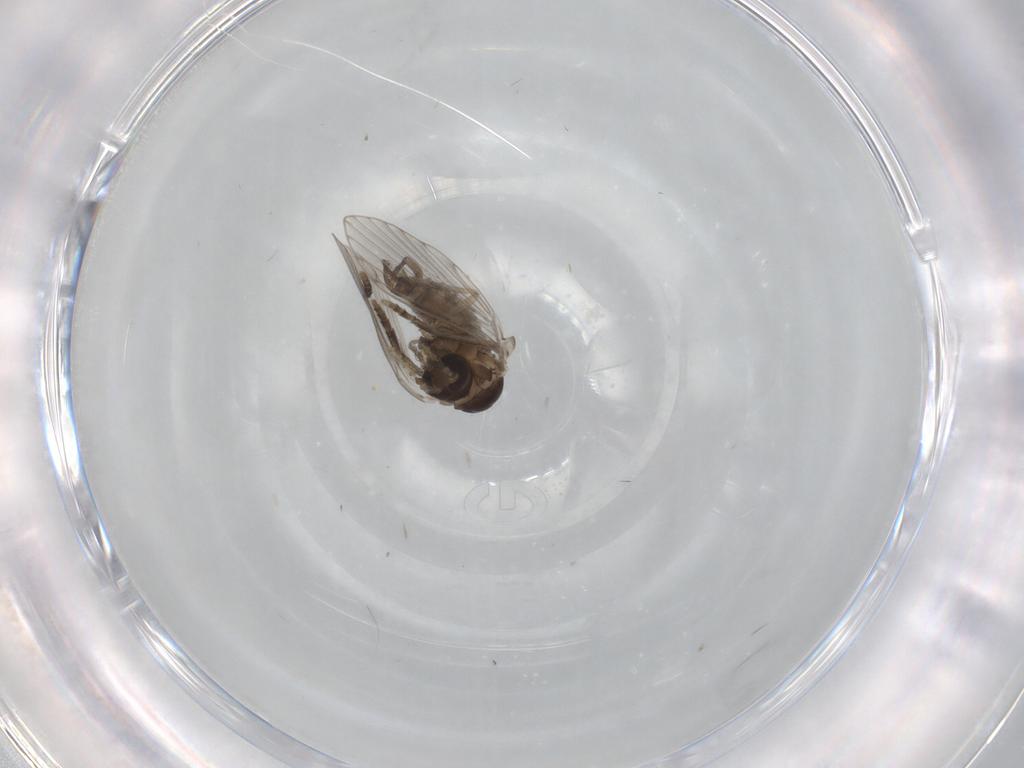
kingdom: Animalia
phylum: Arthropoda
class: Insecta
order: Diptera
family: Psychodidae
